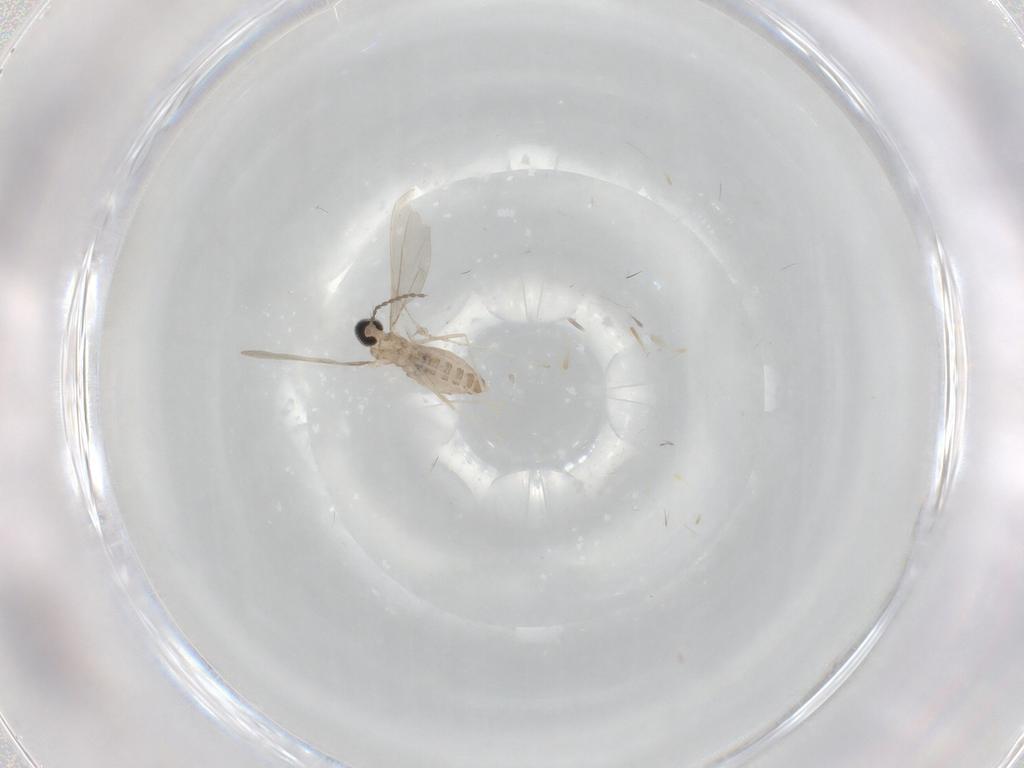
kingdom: Animalia
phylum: Arthropoda
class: Insecta
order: Diptera
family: Cecidomyiidae
